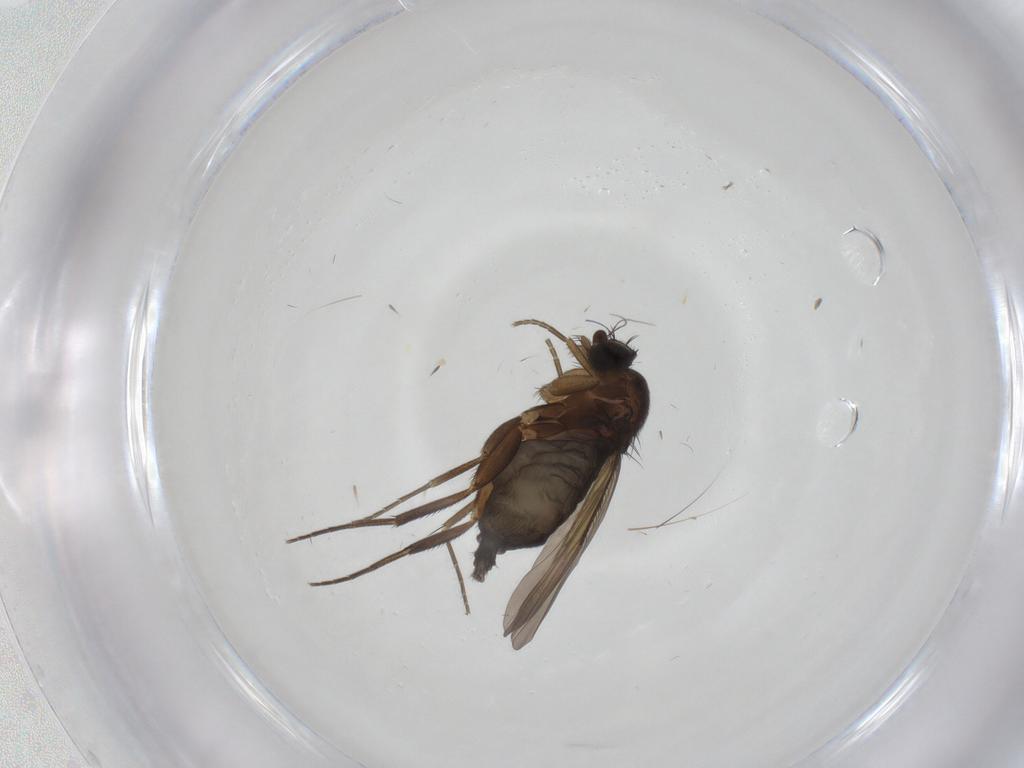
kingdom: Animalia
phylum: Arthropoda
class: Insecta
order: Diptera
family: Phoridae
